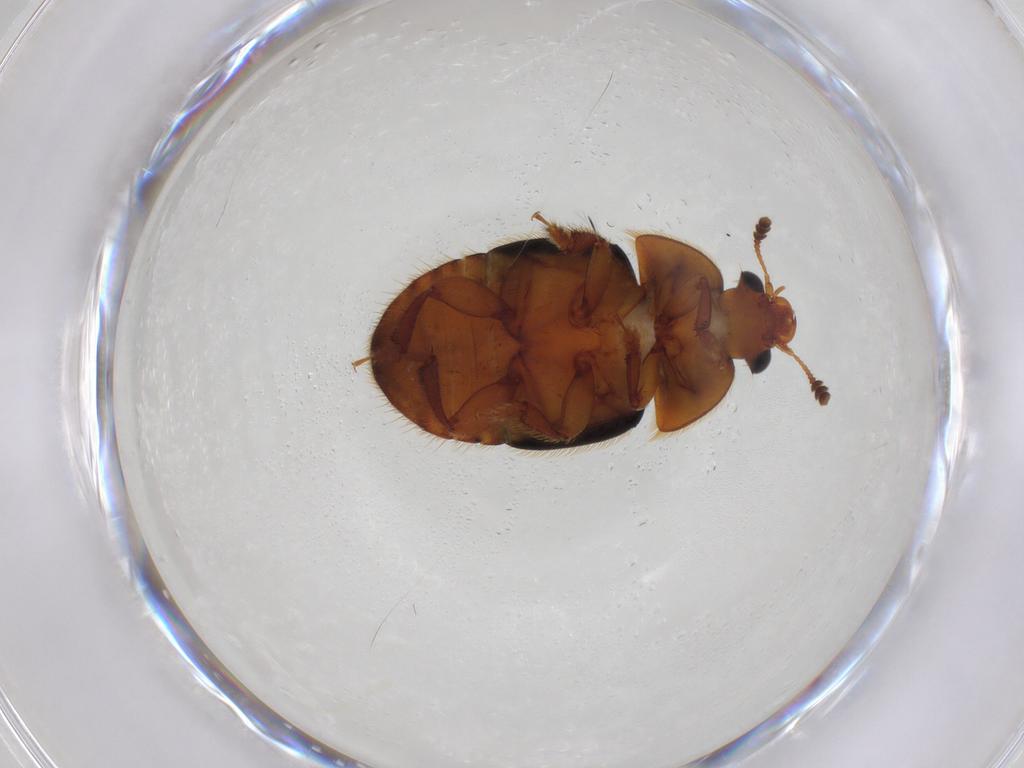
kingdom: Animalia
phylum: Arthropoda
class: Insecta
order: Coleoptera
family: Nitidulidae
